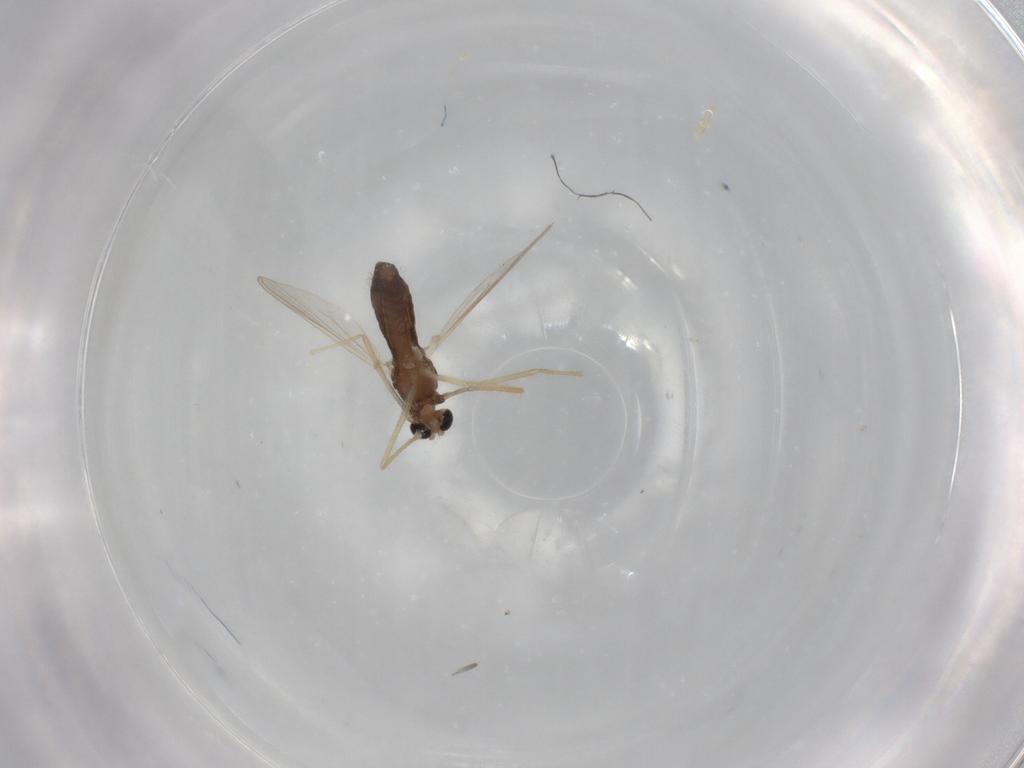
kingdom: Animalia
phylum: Arthropoda
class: Insecta
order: Diptera
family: Chironomidae
